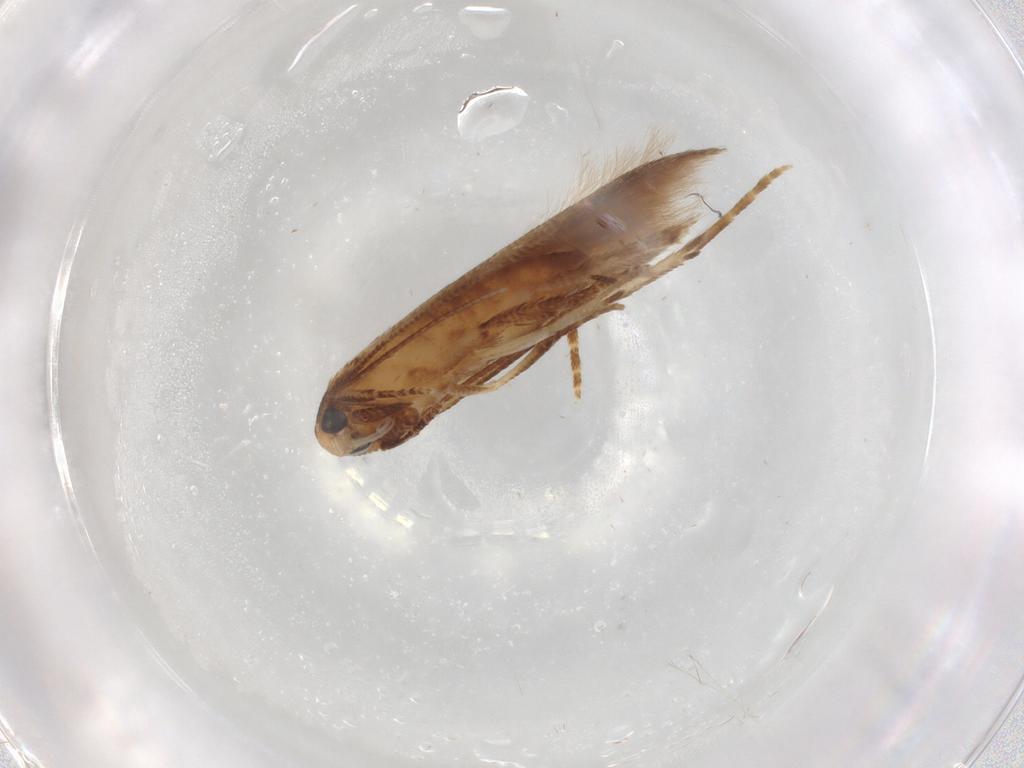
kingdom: Animalia
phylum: Arthropoda
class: Insecta
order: Lepidoptera
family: Cosmopterigidae
